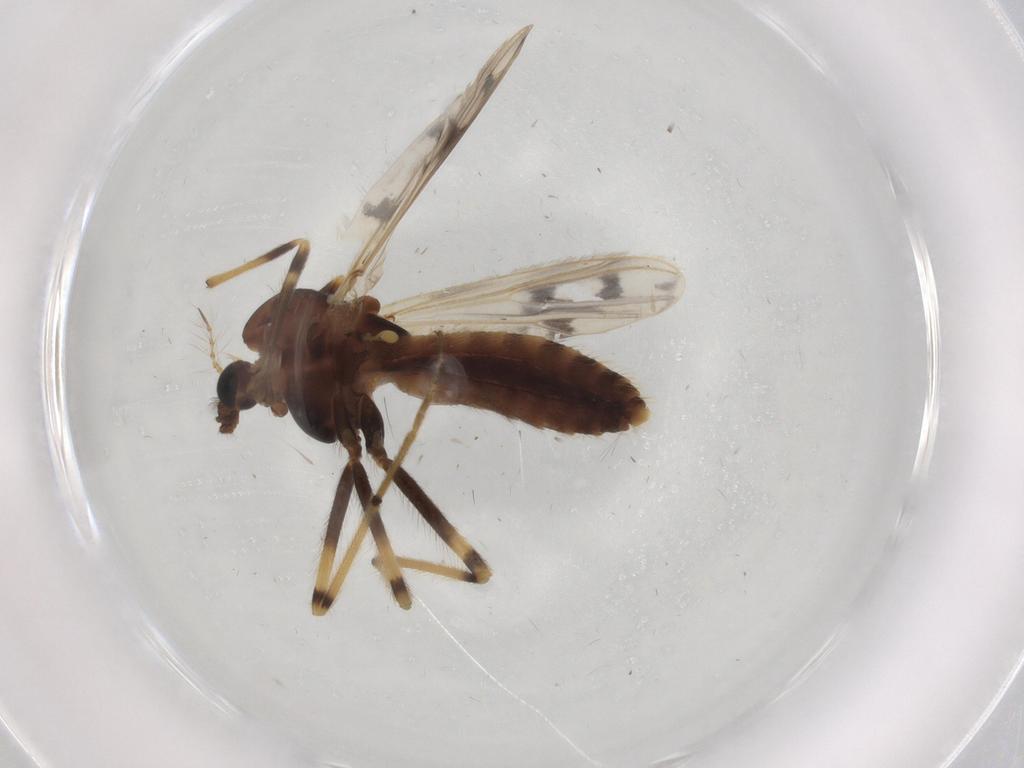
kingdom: Animalia
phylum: Arthropoda
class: Insecta
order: Diptera
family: Chironomidae
